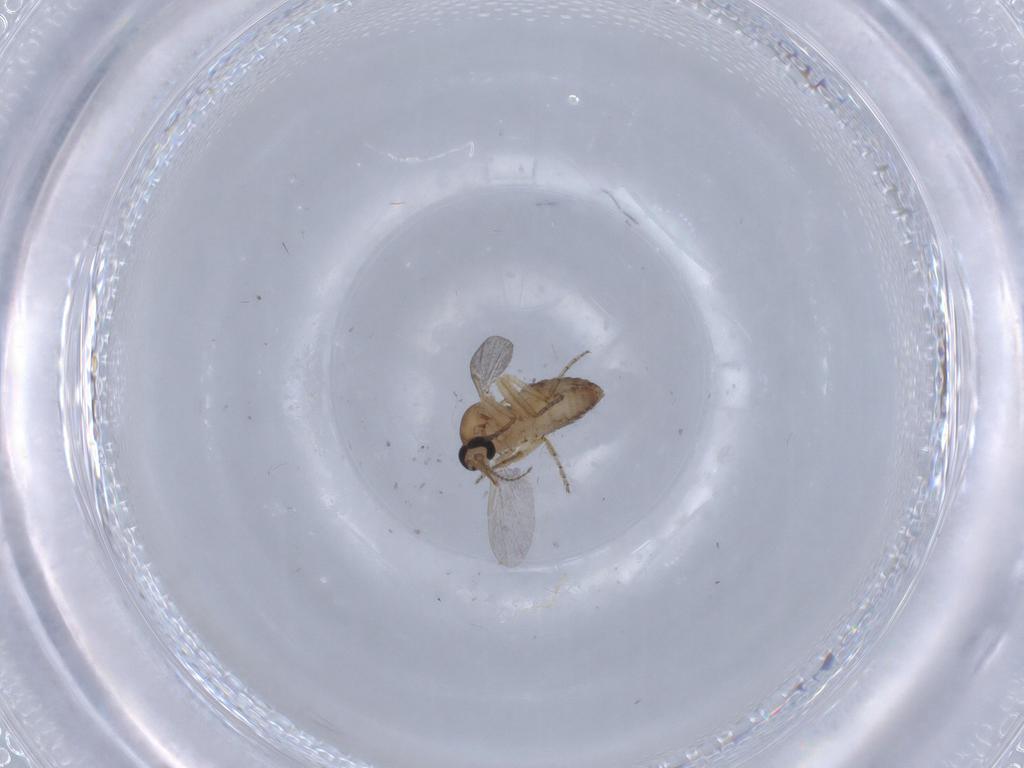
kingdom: Animalia
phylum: Arthropoda
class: Insecta
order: Diptera
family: Ceratopogonidae
